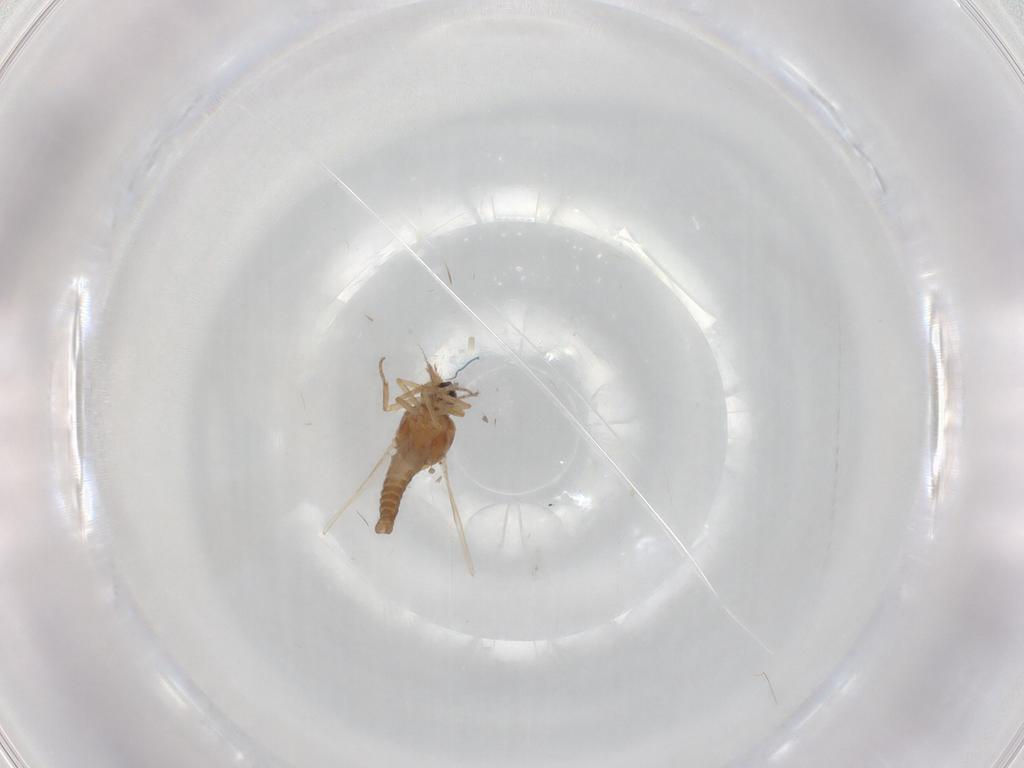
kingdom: Animalia
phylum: Arthropoda
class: Insecta
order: Diptera
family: Ceratopogonidae
